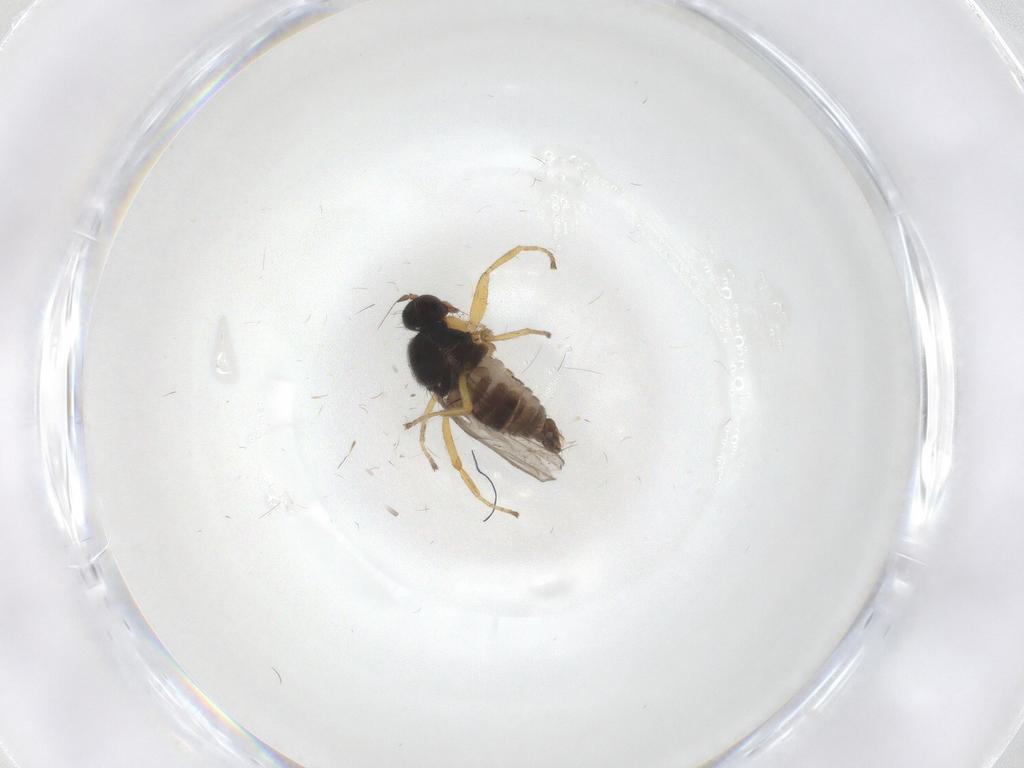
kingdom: Animalia
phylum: Arthropoda
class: Insecta
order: Diptera
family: Hybotidae
